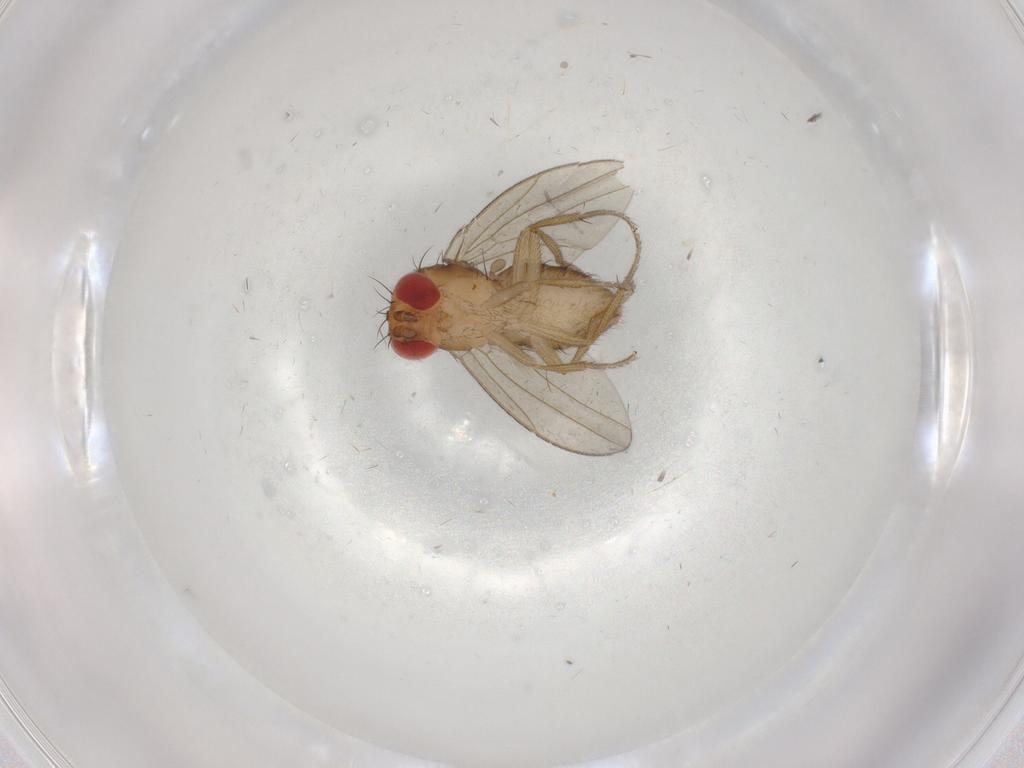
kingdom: Animalia
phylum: Arthropoda
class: Insecta
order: Diptera
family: Drosophilidae
